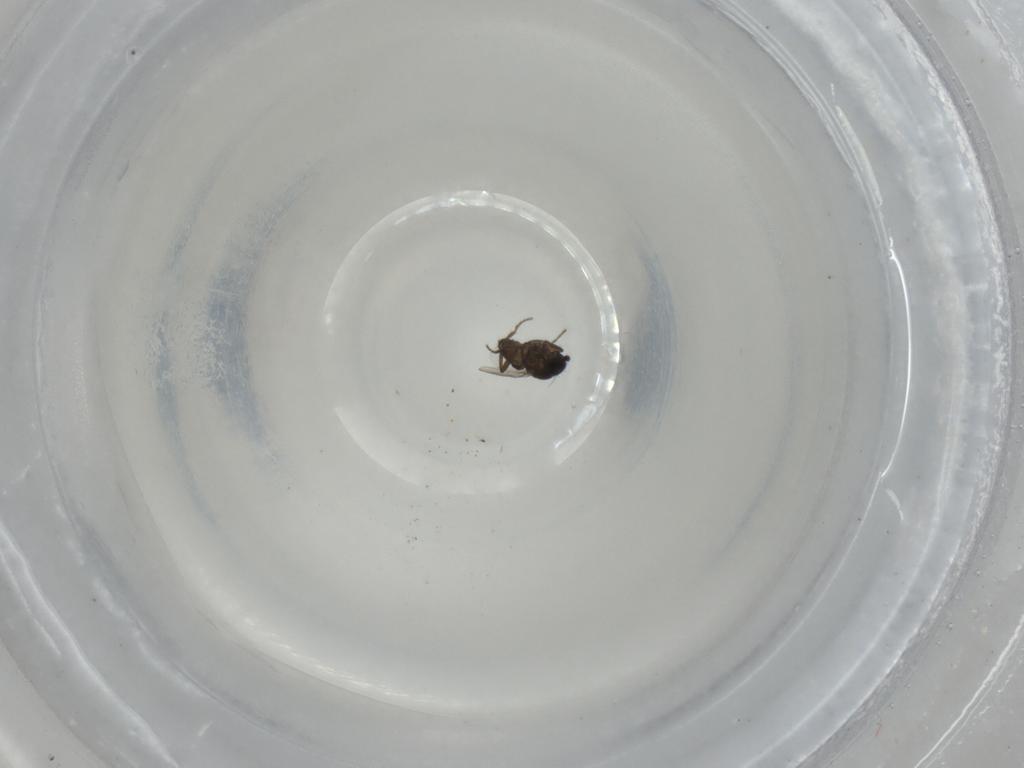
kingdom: Animalia
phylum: Arthropoda
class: Insecta
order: Diptera
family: Sphaeroceridae
